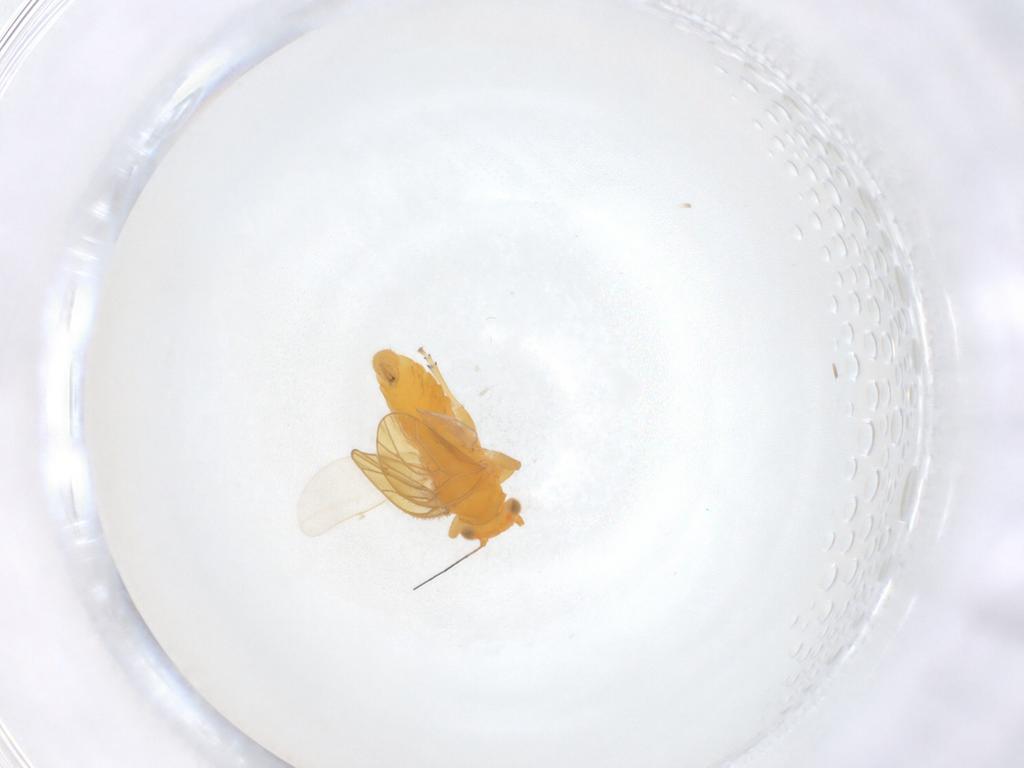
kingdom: Animalia
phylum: Arthropoda
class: Insecta
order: Hemiptera
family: Psyllidae
